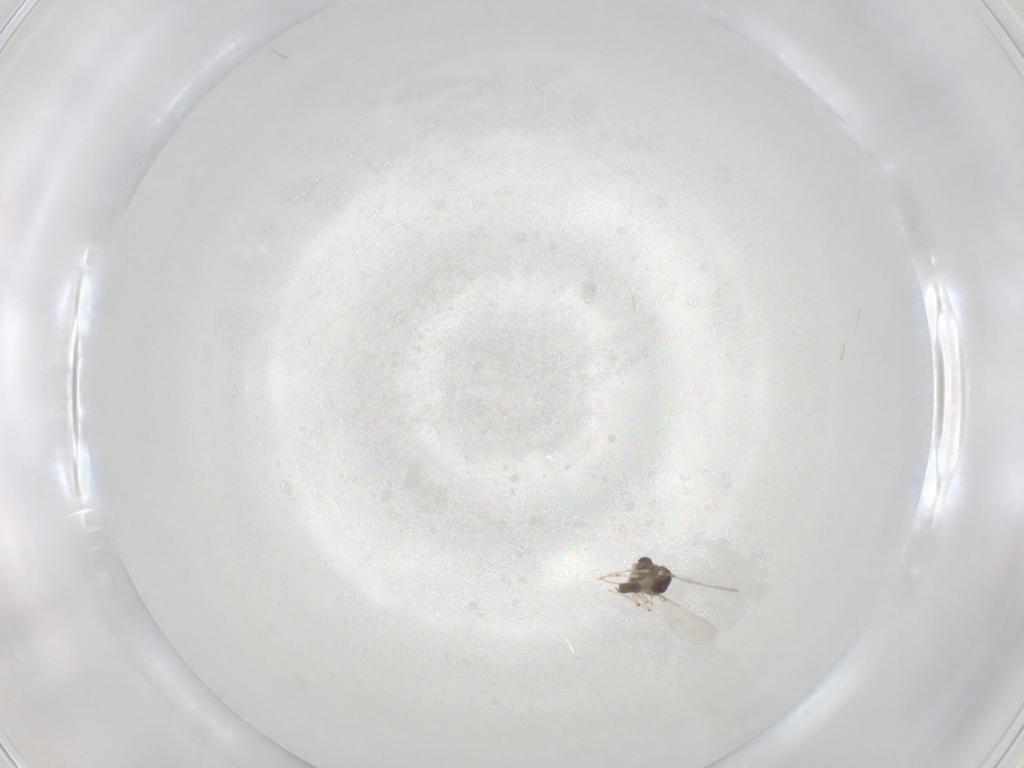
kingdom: Animalia
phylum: Arthropoda
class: Insecta
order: Diptera
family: Chironomidae
